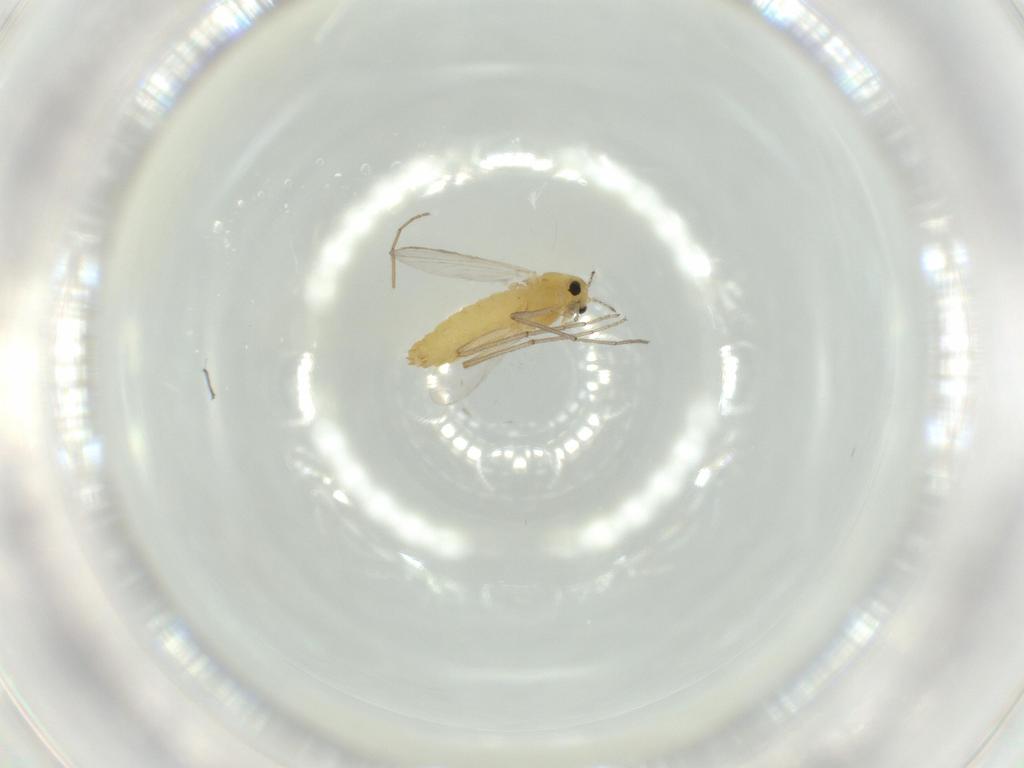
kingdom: Animalia
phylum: Arthropoda
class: Insecta
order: Diptera
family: Chironomidae
